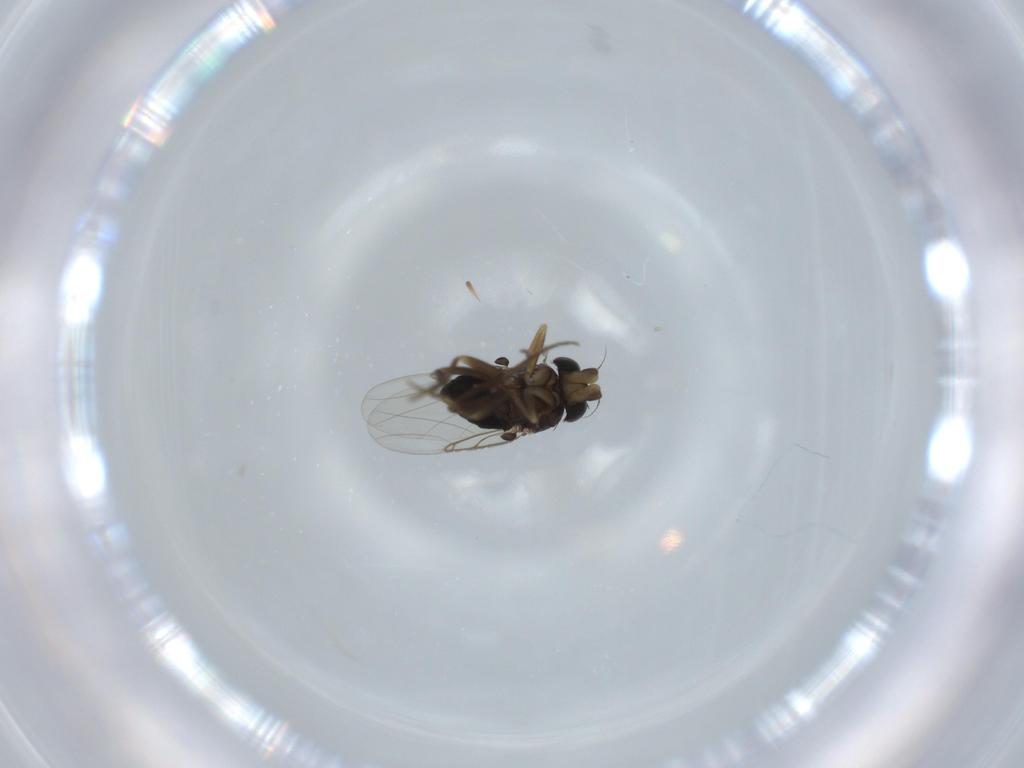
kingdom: Animalia
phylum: Arthropoda
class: Insecta
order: Diptera
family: Phoridae
